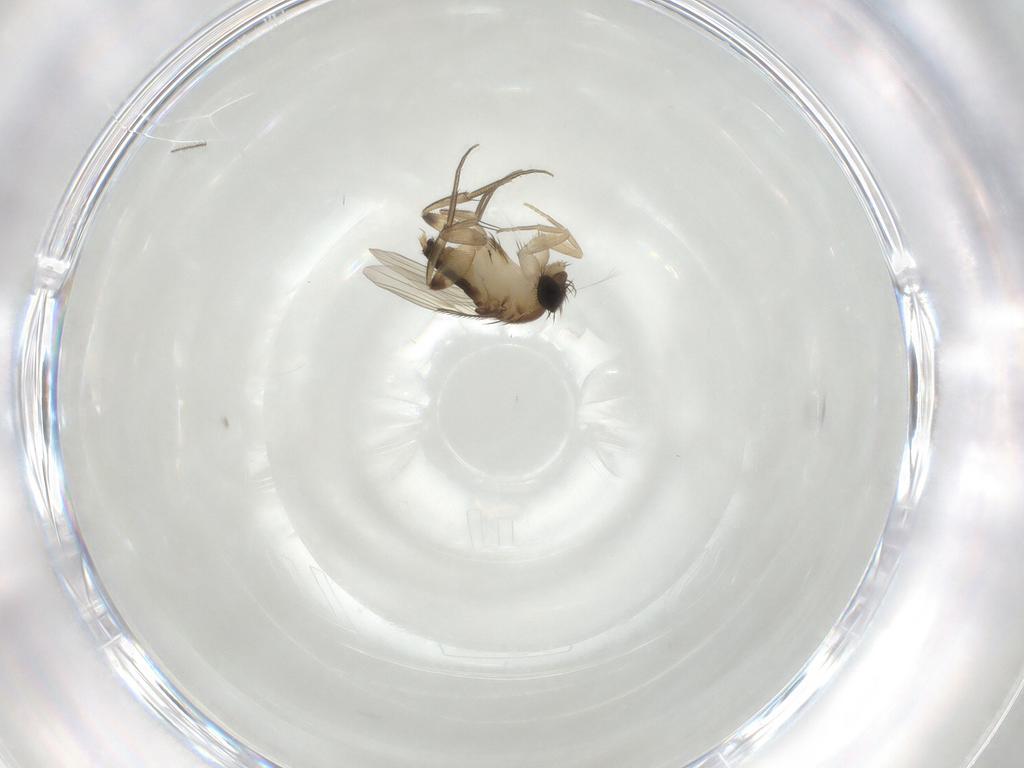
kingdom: Animalia
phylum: Arthropoda
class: Insecta
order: Diptera
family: Phoridae
